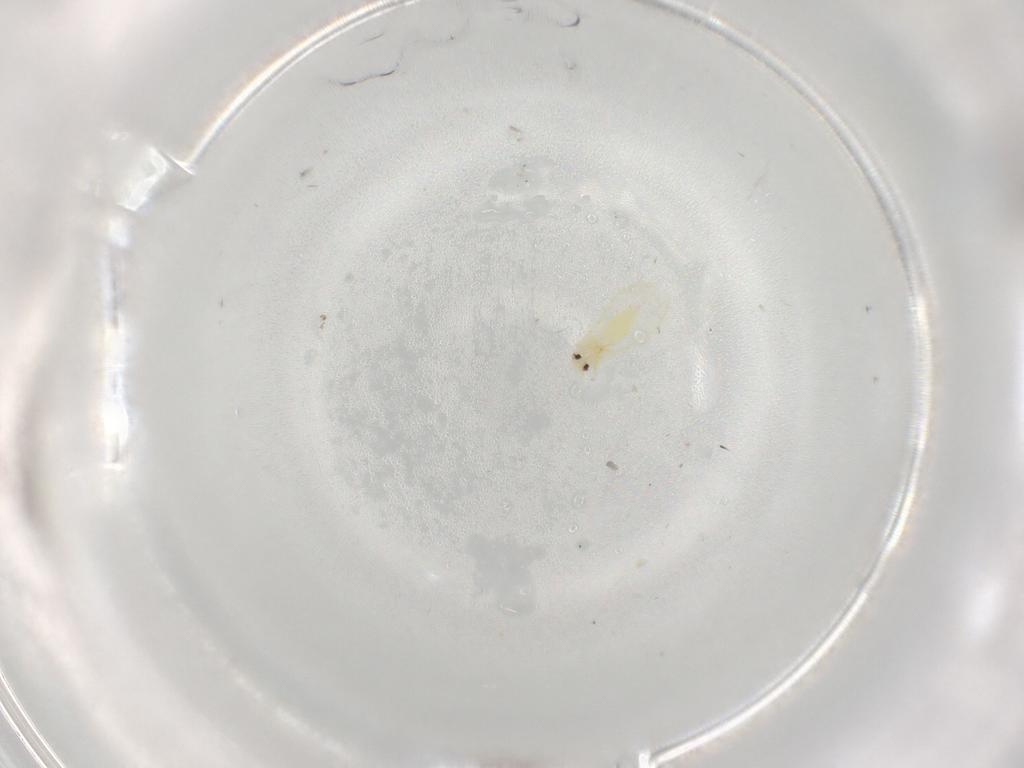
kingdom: Animalia
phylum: Arthropoda
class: Insecta
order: Hemiptera
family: Aleyrodidae
